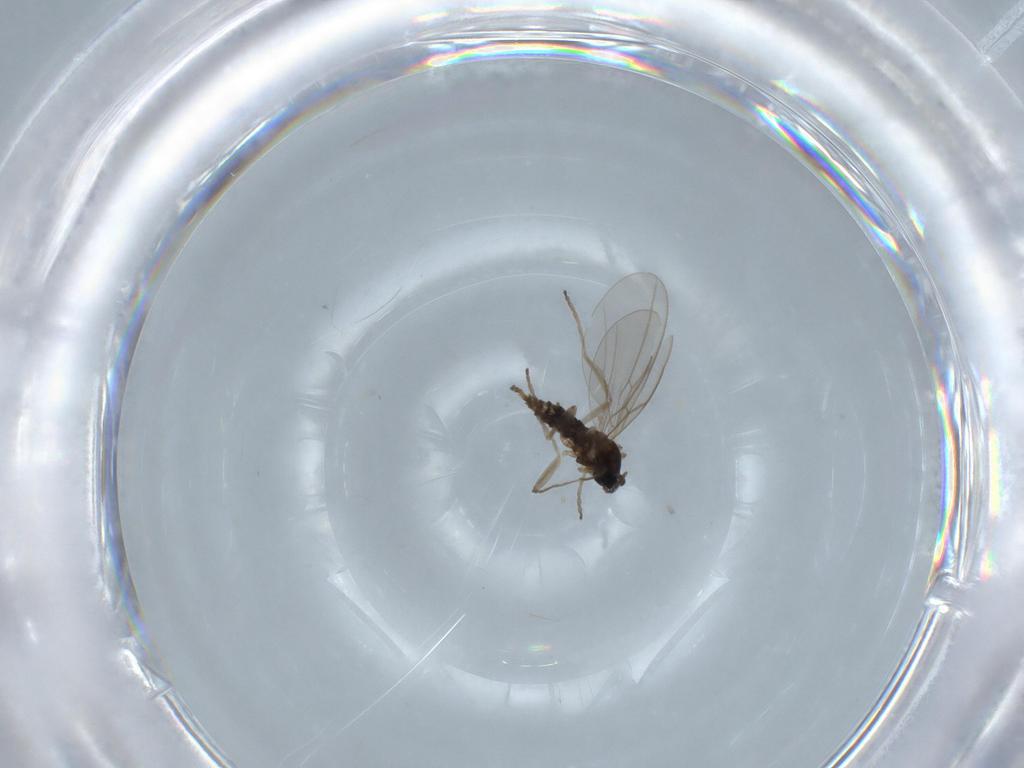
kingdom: Animalia
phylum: Arthropoda
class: Insecta
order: Diptera
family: Cecidomyiidae
